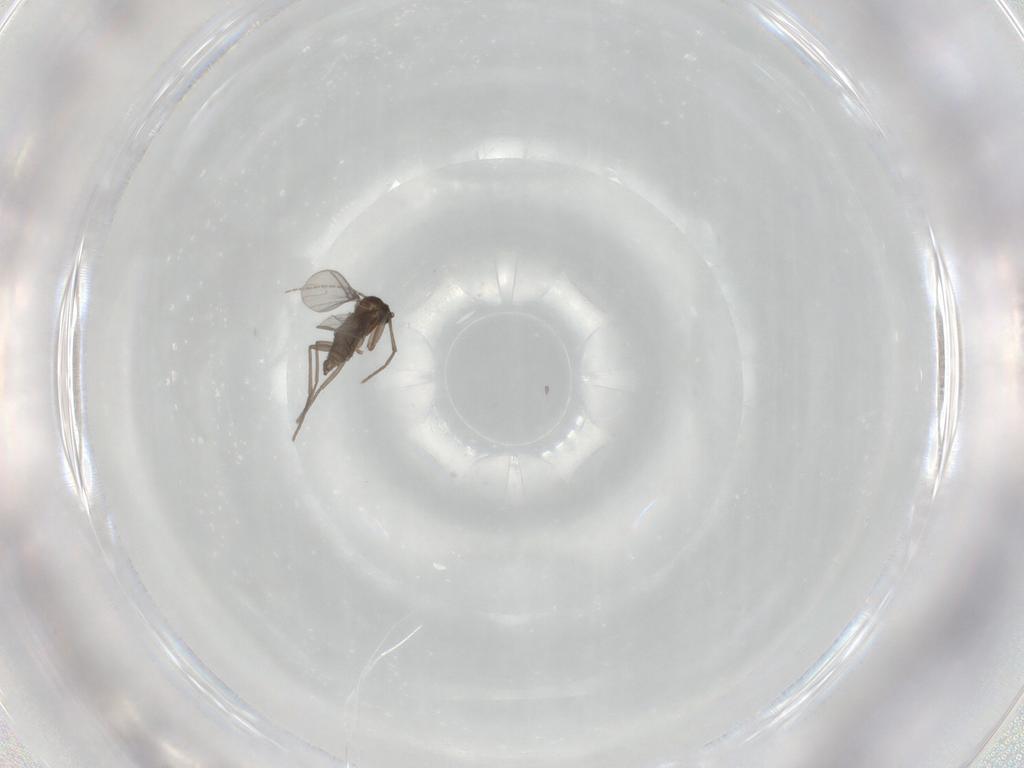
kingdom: Animalia
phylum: Arthropoda
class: Insecta
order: Diptera
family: Sciaridae
